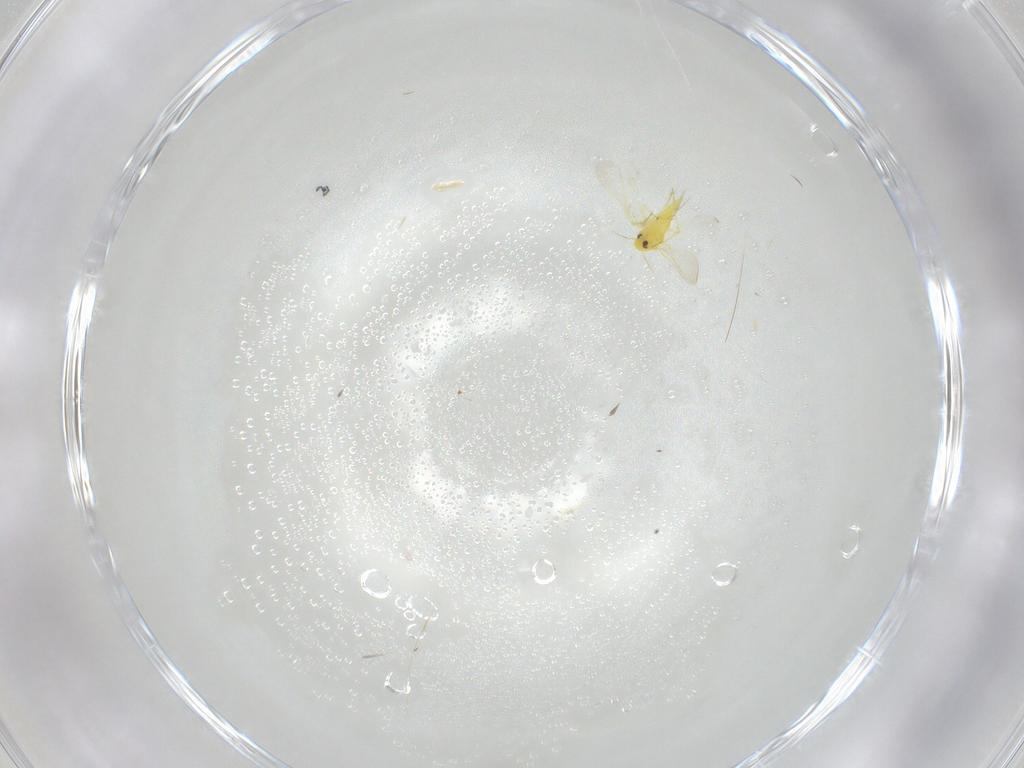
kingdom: Animalia
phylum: Arthropoda
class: Insecta
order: Hemiptera
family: Aleyrodidae
